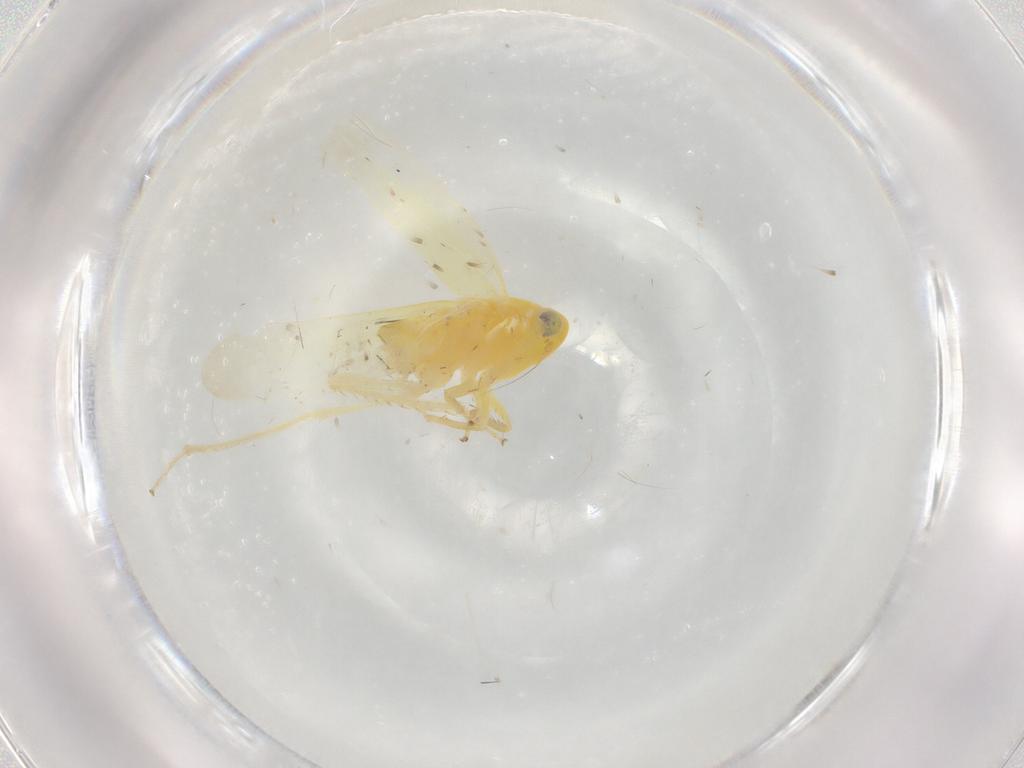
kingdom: Animalia
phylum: Arthropoda
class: Insecta
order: Hemiptera
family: Cicadellidae
